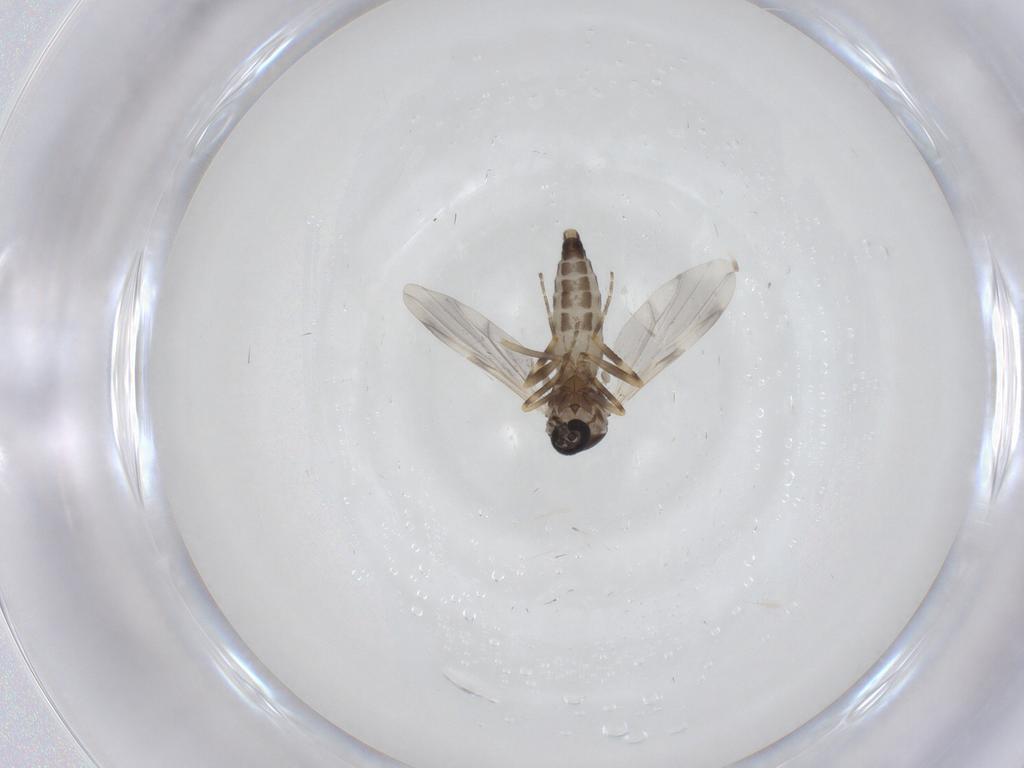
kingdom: Animalia
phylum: Arthropoda
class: Insecta
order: Diptera
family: Ceratopogonidae
